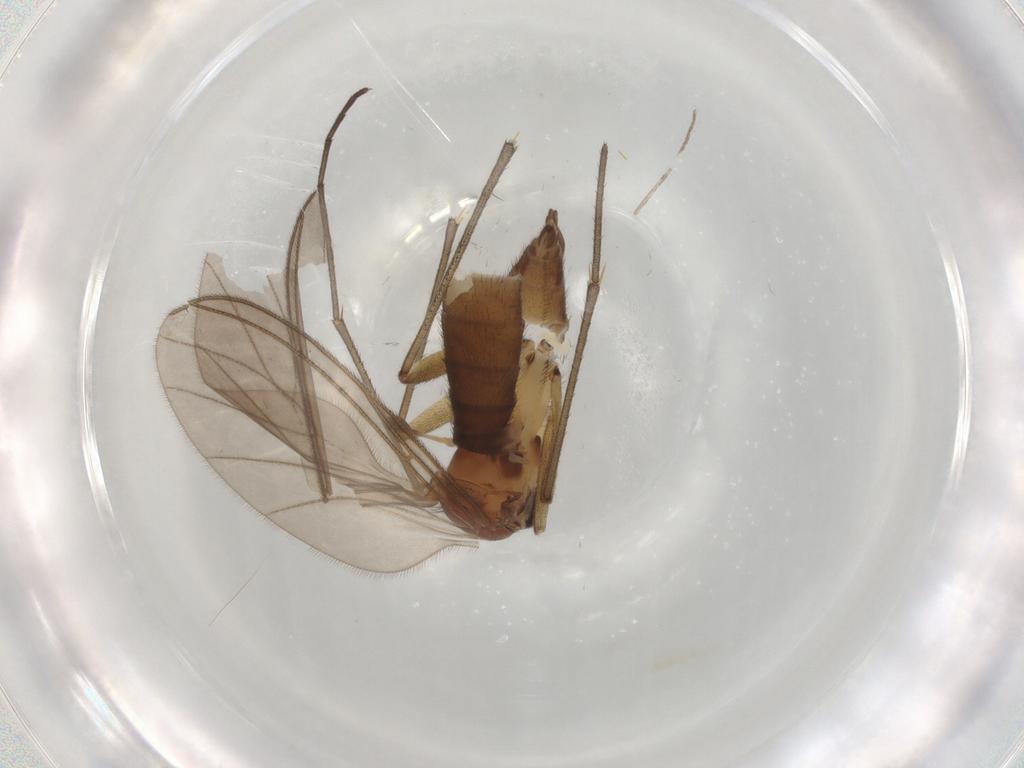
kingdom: Animalia
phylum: Arthropoda
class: Insecta
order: Diptera
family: Sciaridae
